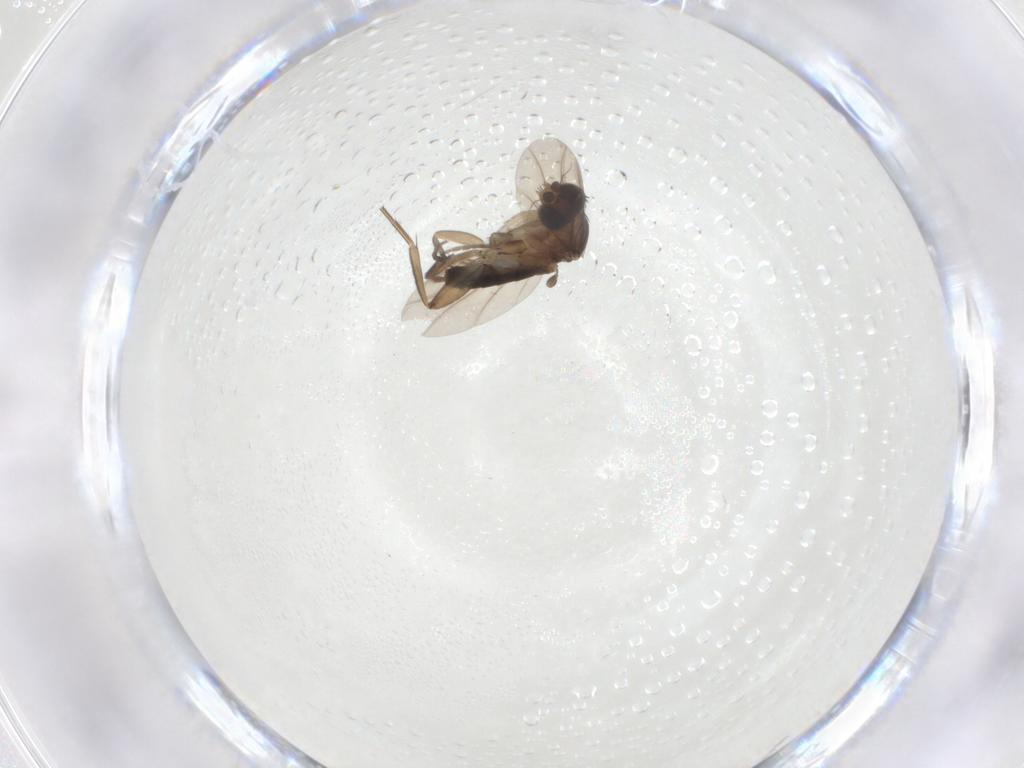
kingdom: Animalia
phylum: Arthropoda
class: Insecta
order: Diptera
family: Phoridae
